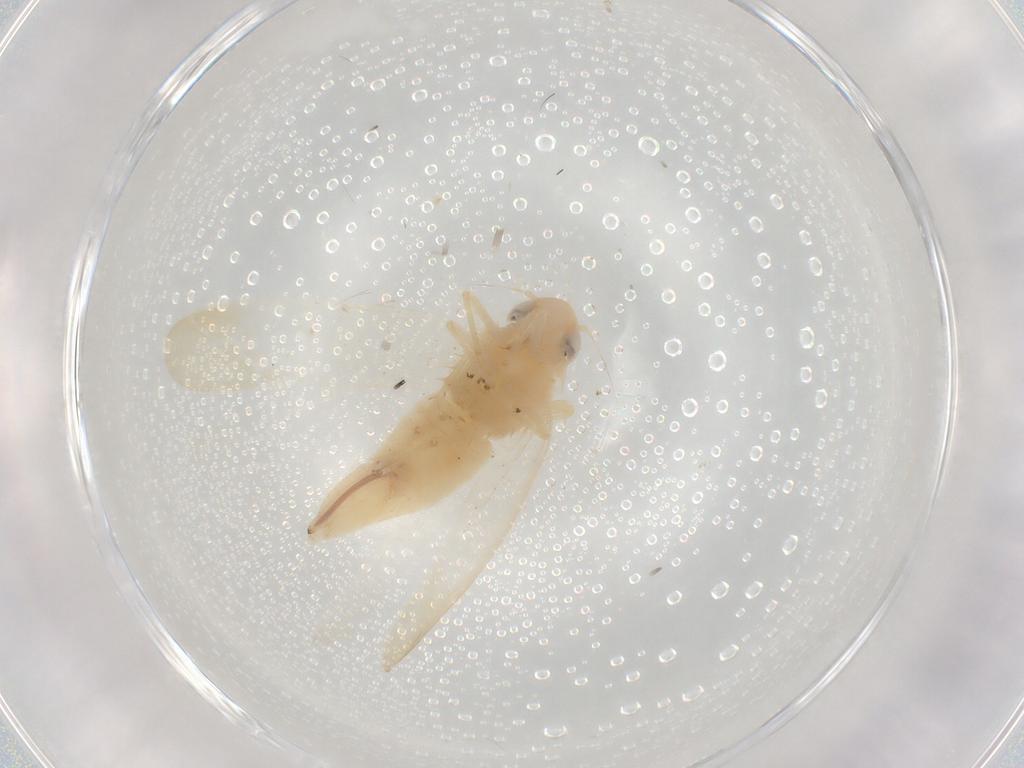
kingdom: Animalia
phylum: Arthropoda
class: Insecta
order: Hemiptera
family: Cicadellidae
